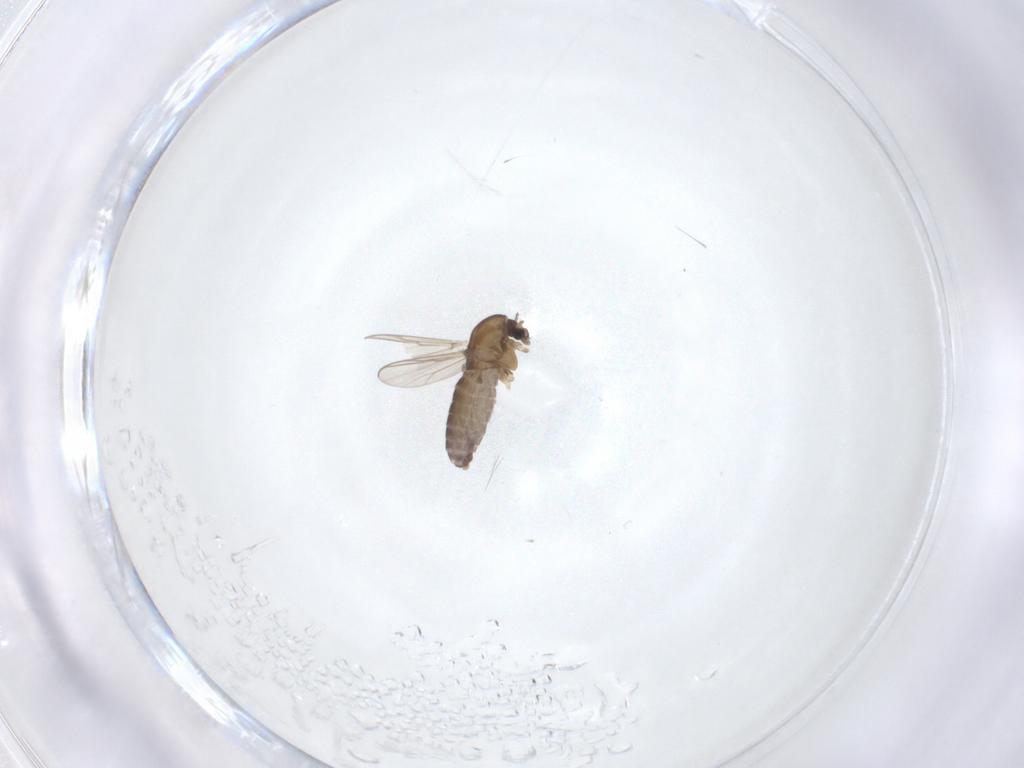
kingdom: Animalia
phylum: Arthropoda
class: Insecta
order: Diptera
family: Chironomidae
